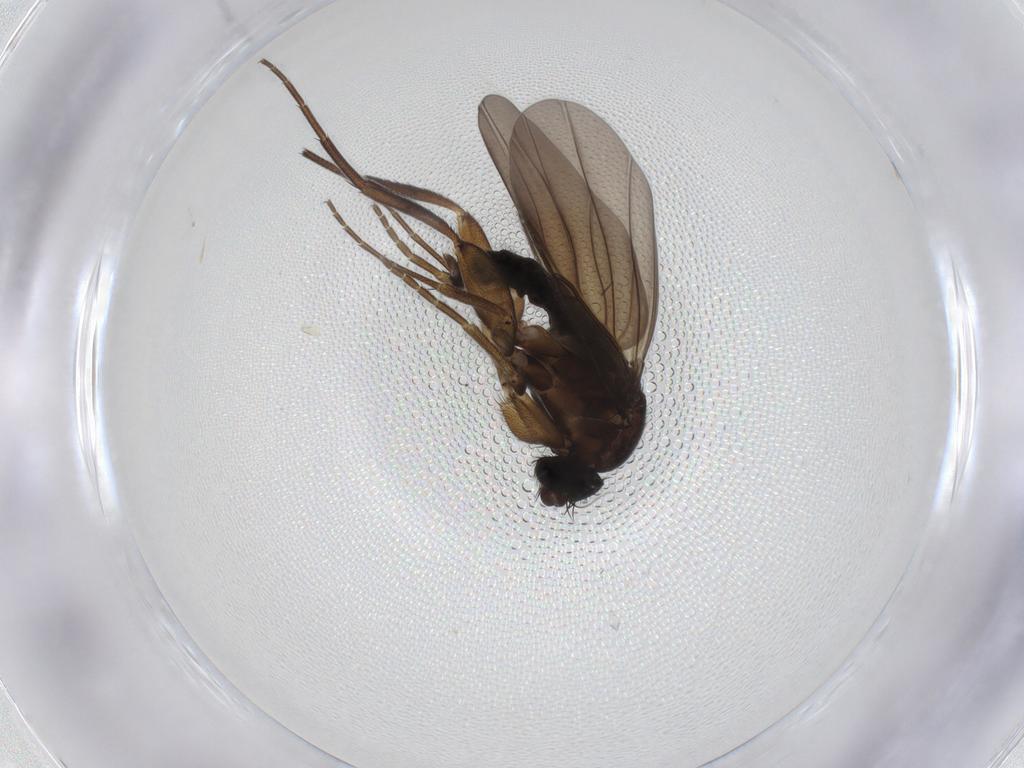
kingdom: Animalia
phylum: Arthropoda
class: Insecta
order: Diptera
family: Phoridae
